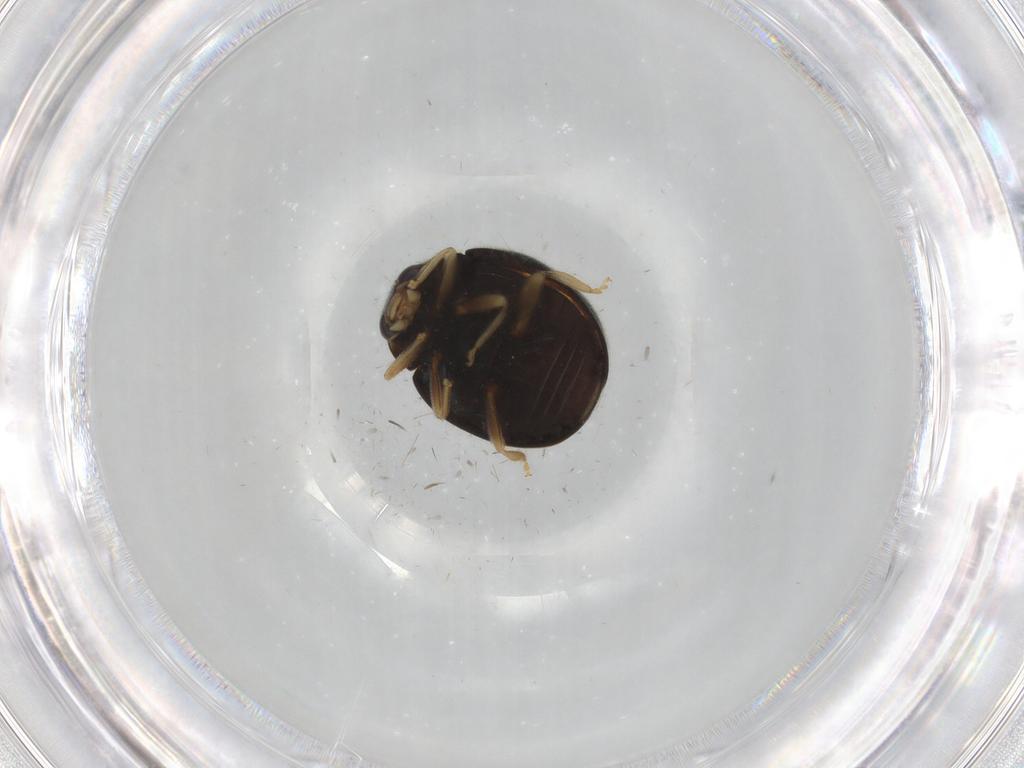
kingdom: Animalia
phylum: Arthropoda
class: Insecta
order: Coleoptera
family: Coccinellidae
